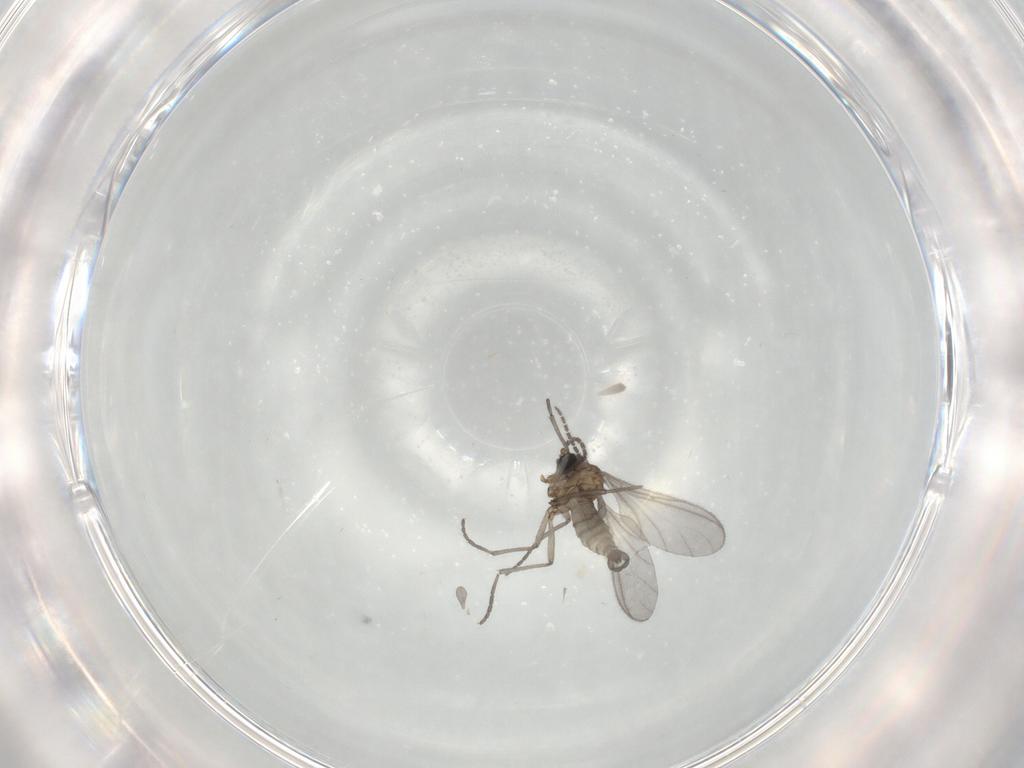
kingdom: Animalia
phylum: Arthropoda
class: Insecta
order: Diptera
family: Sciaridae
